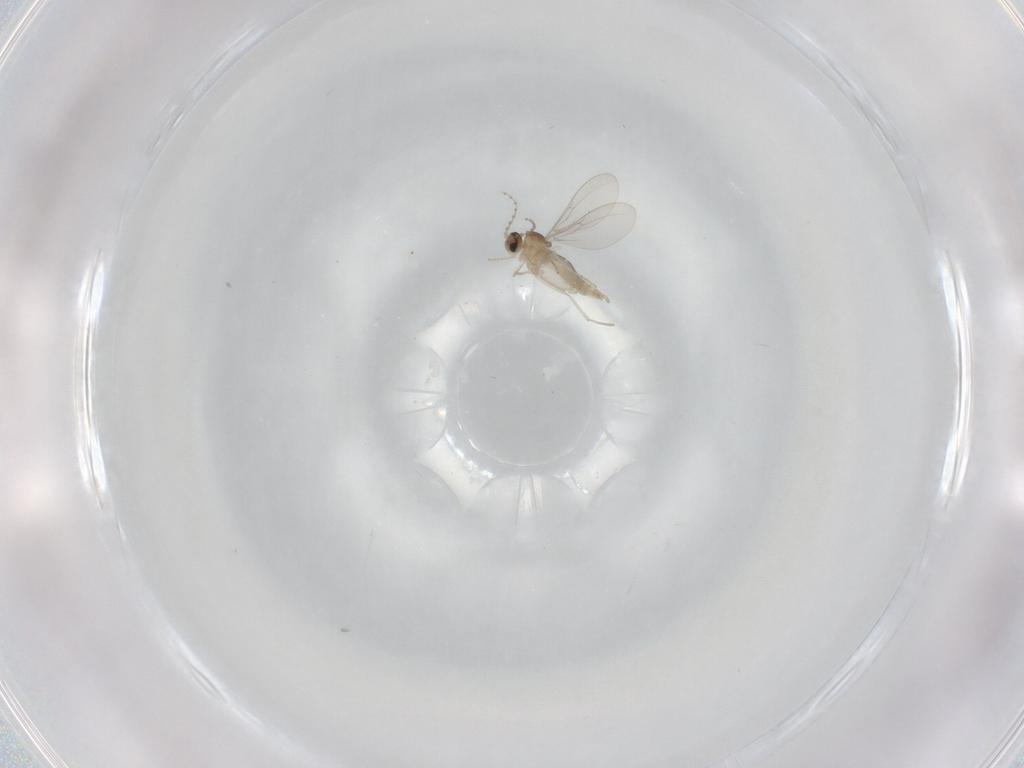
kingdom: Animalia
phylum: Arthropoda
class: Insecta
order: Diptera
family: Cecidomyiidae
